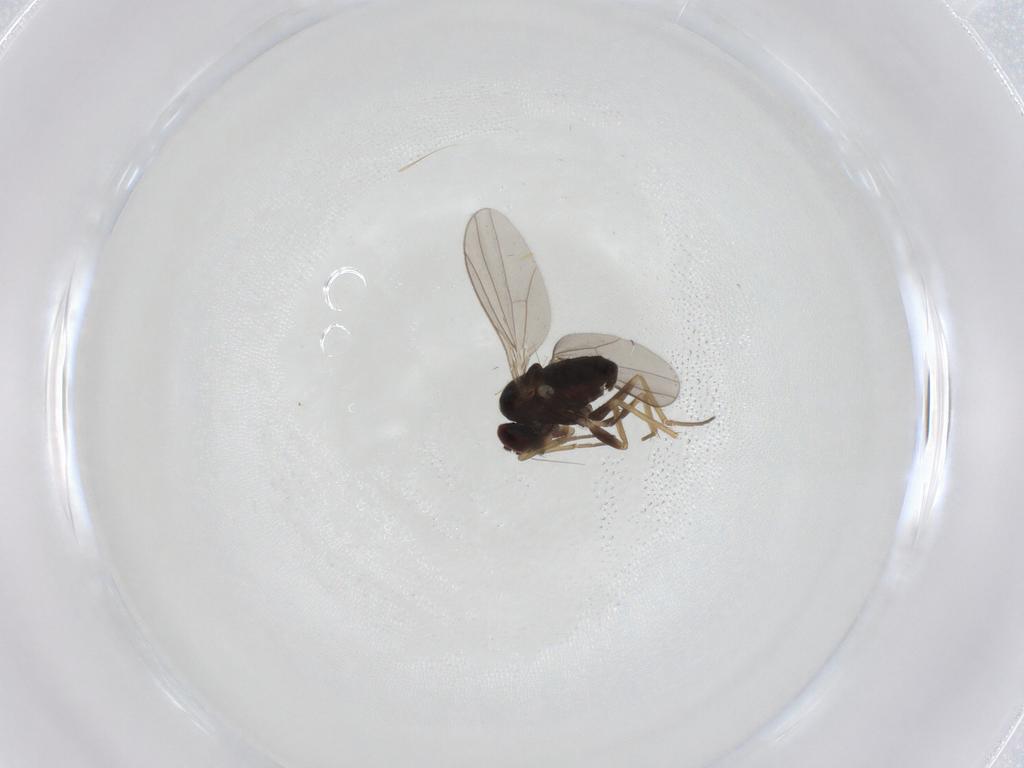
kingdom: Animalia
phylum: Arthropoda
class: Insecta
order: Diptera
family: Dolichopodidae
